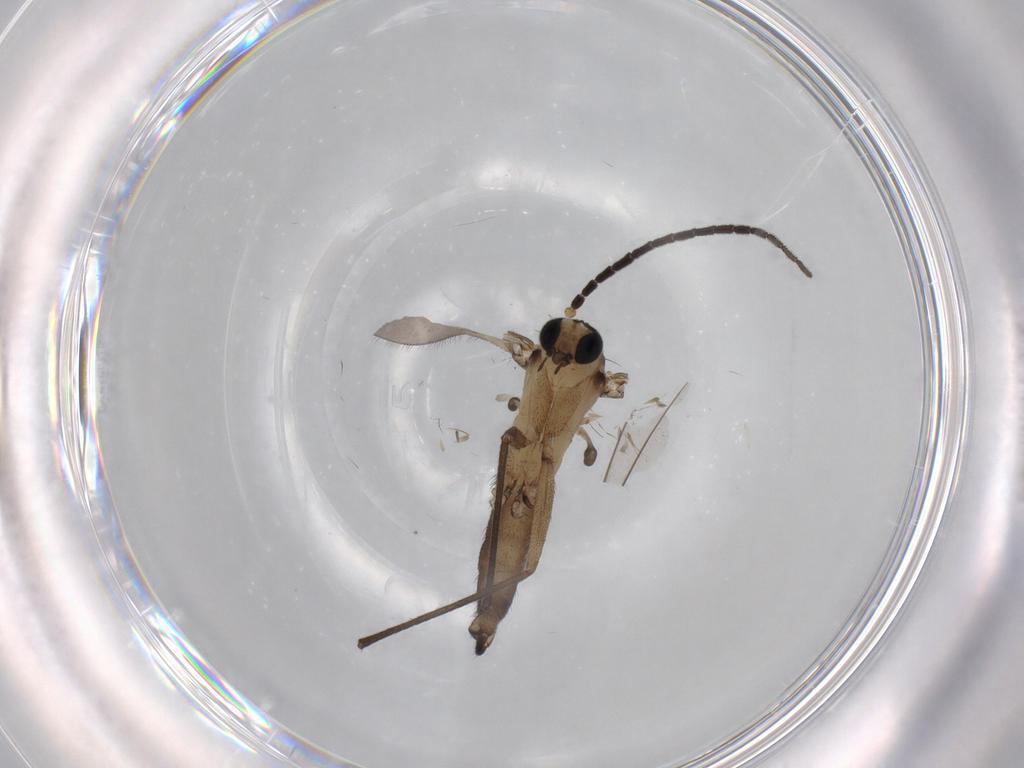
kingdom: Animalia
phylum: Arthropoda
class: Insecta
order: Diptera
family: Sciaridae
